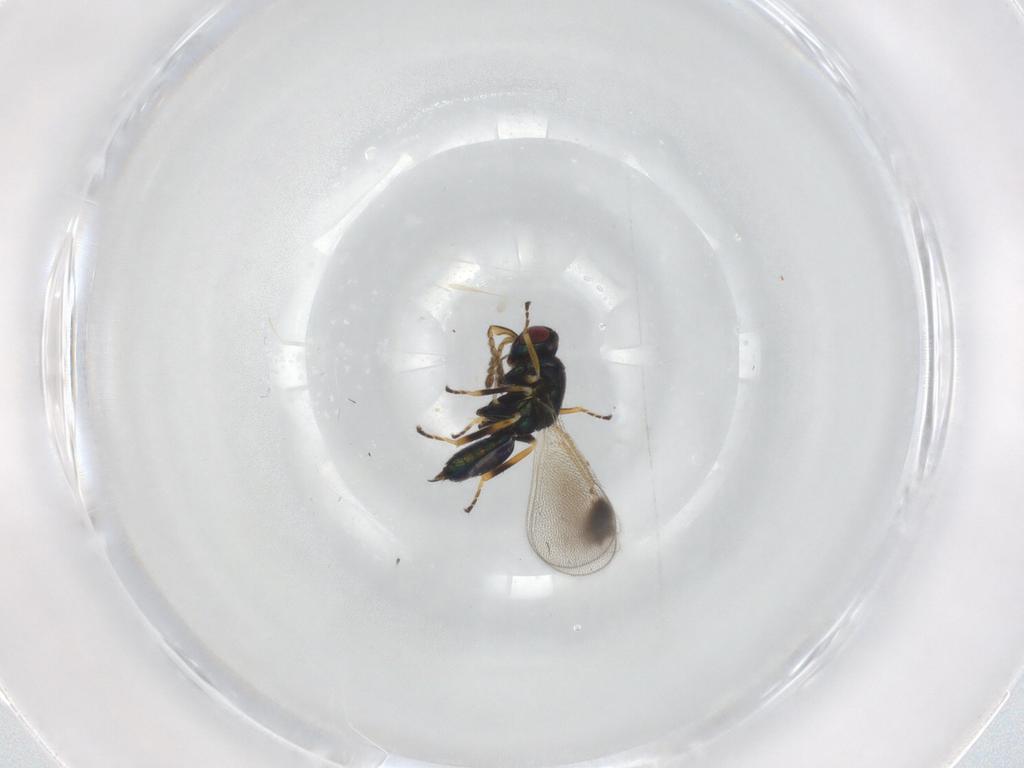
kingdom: Animalia
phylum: Arthropoda
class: Insecta
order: Hymenoptera
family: Eulophidae
